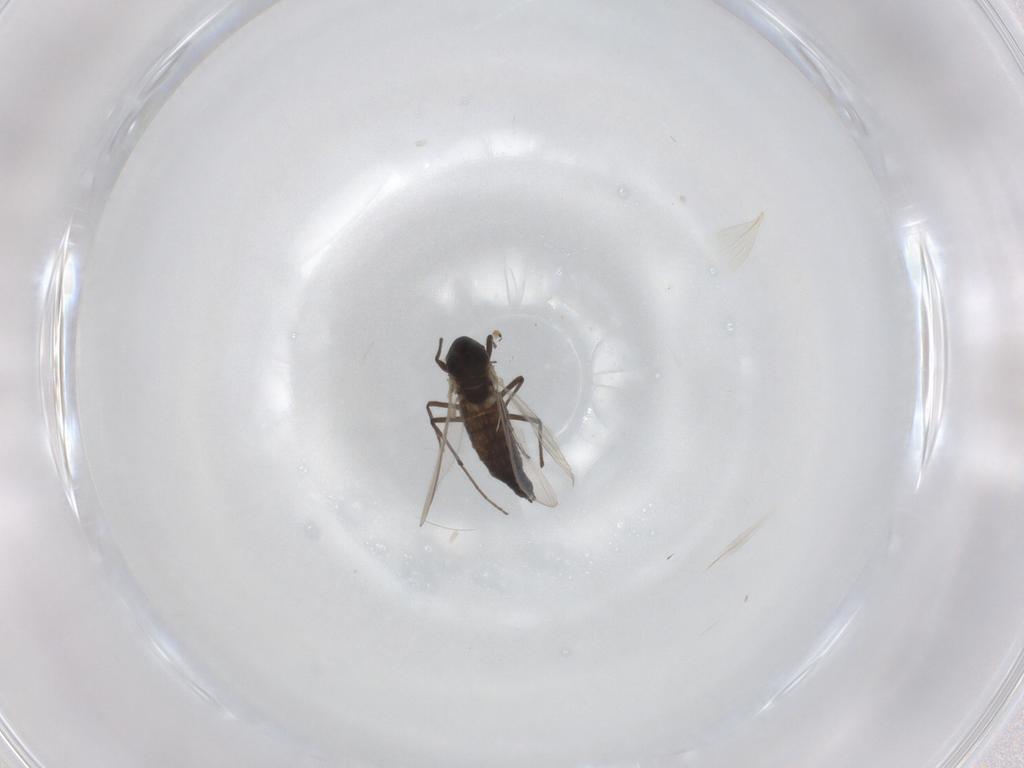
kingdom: Animalia
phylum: Arthropoda
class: Insecta
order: Diptera
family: Chironomidae
